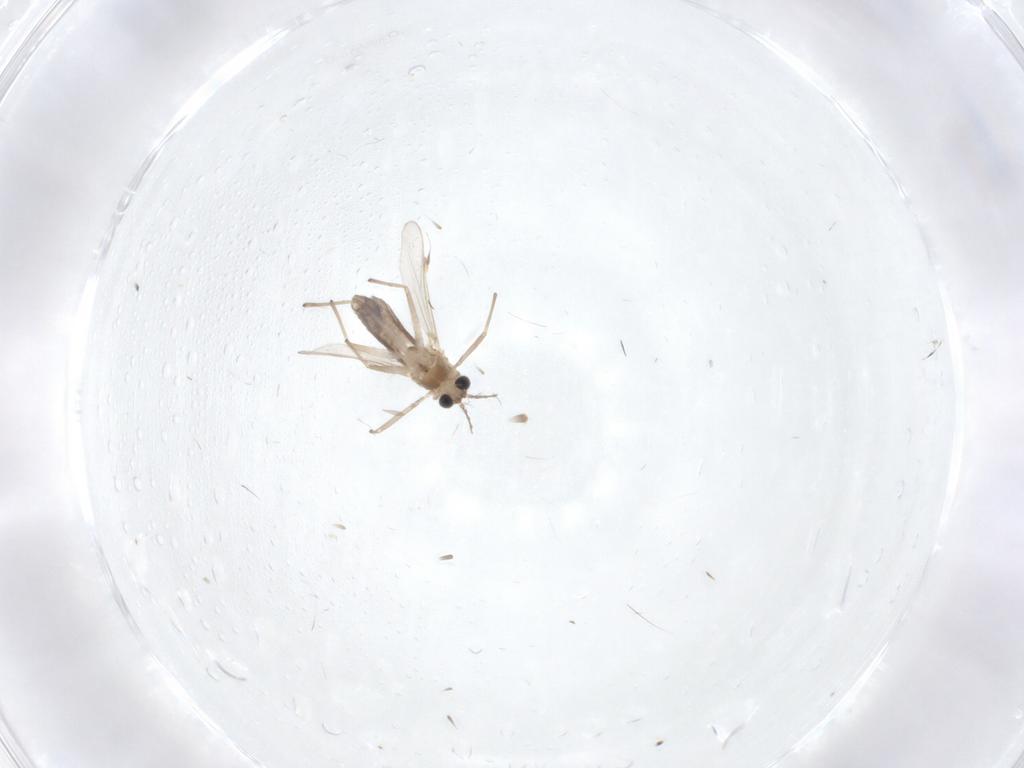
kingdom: Animalia
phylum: Arthropoda
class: Insecta
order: Diptera
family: Chironomidae
